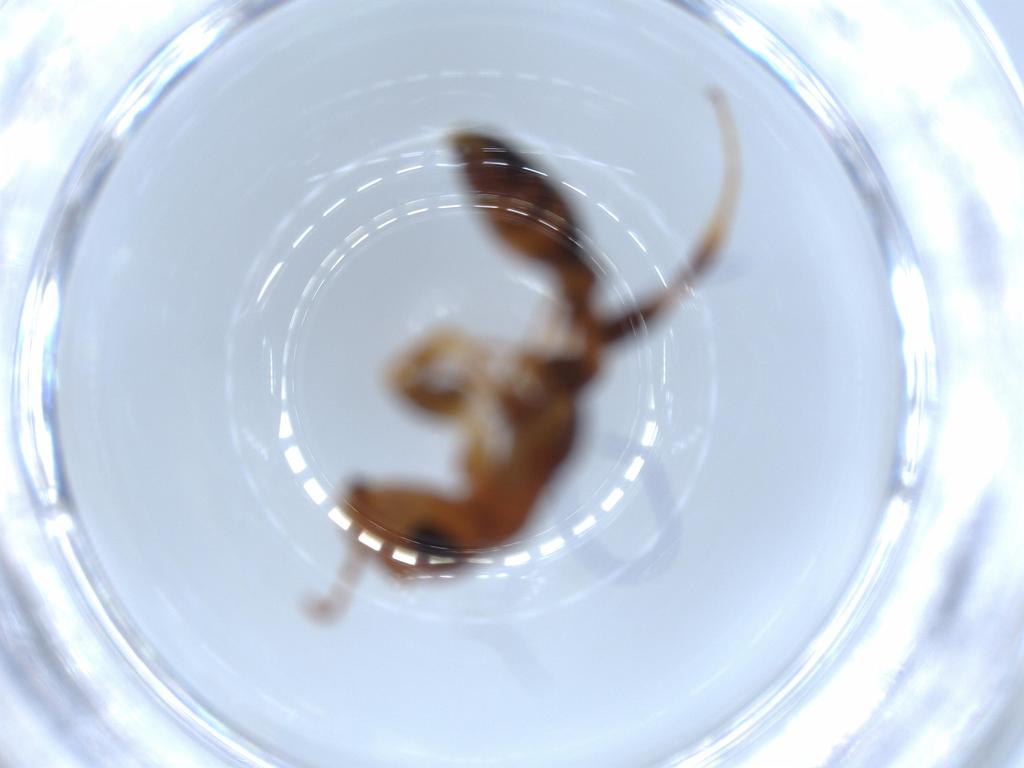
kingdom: Animalia
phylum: Arthropoda
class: Insecta
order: Hymenoptera
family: Formicidae
